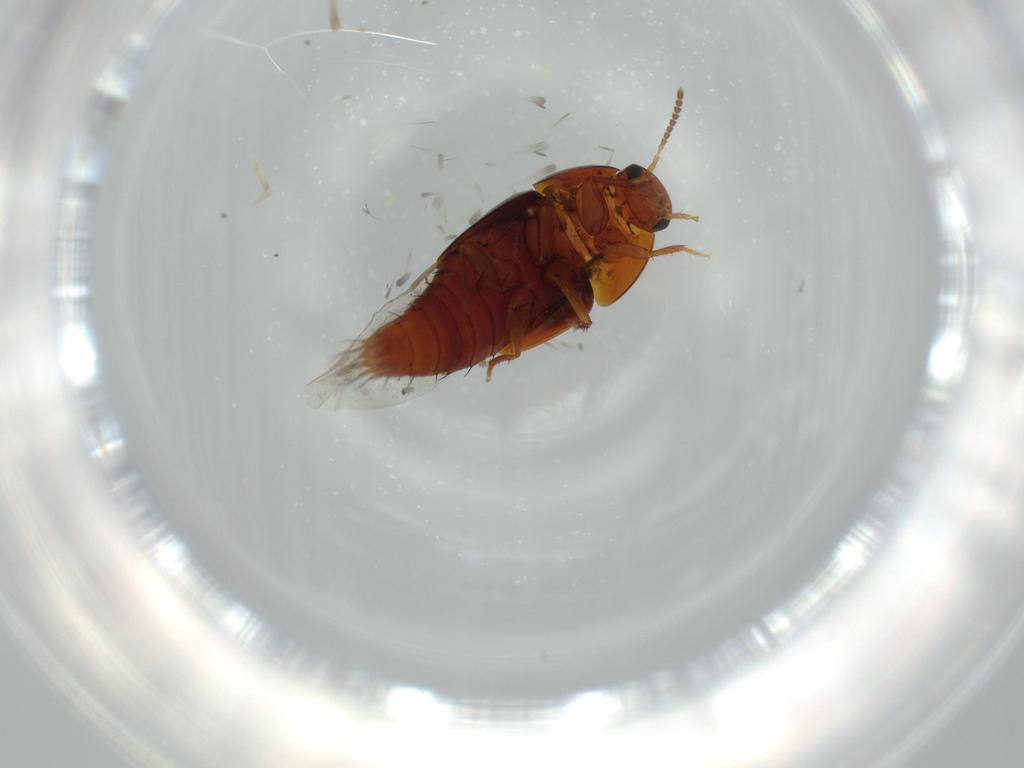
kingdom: Animalia
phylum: Arthropoda
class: Insecta
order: Coleoptera
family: Staphylinidae
